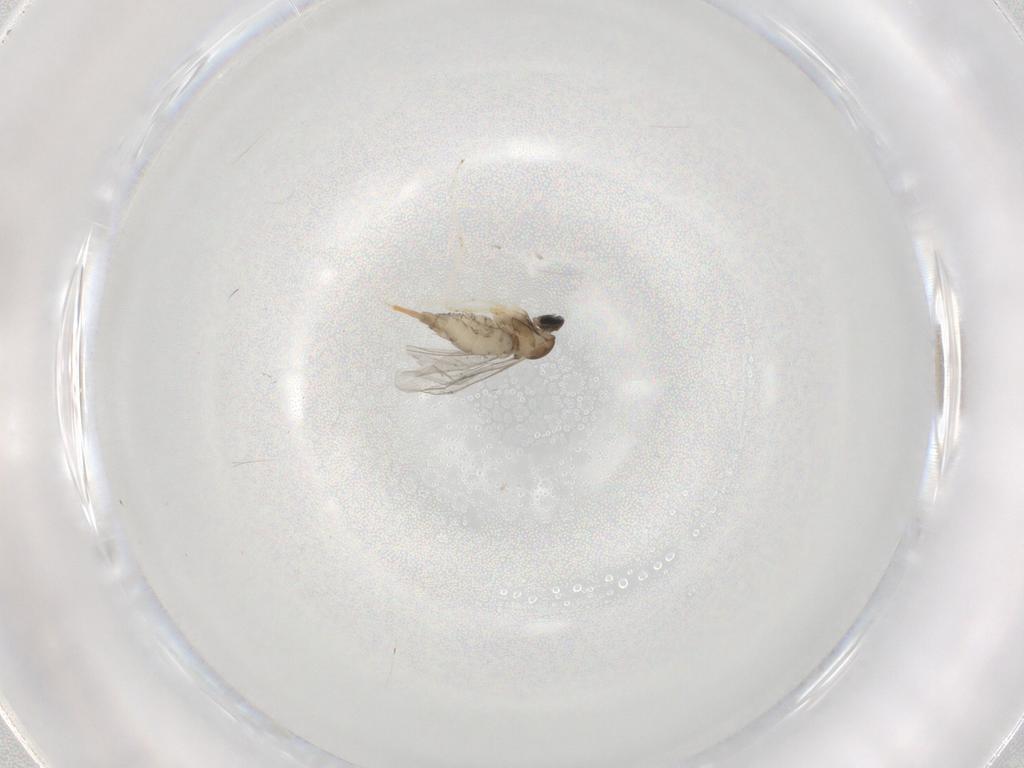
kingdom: Animalia
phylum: Arthropoda
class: Insecta
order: Diptera
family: Cecidomyiidae
